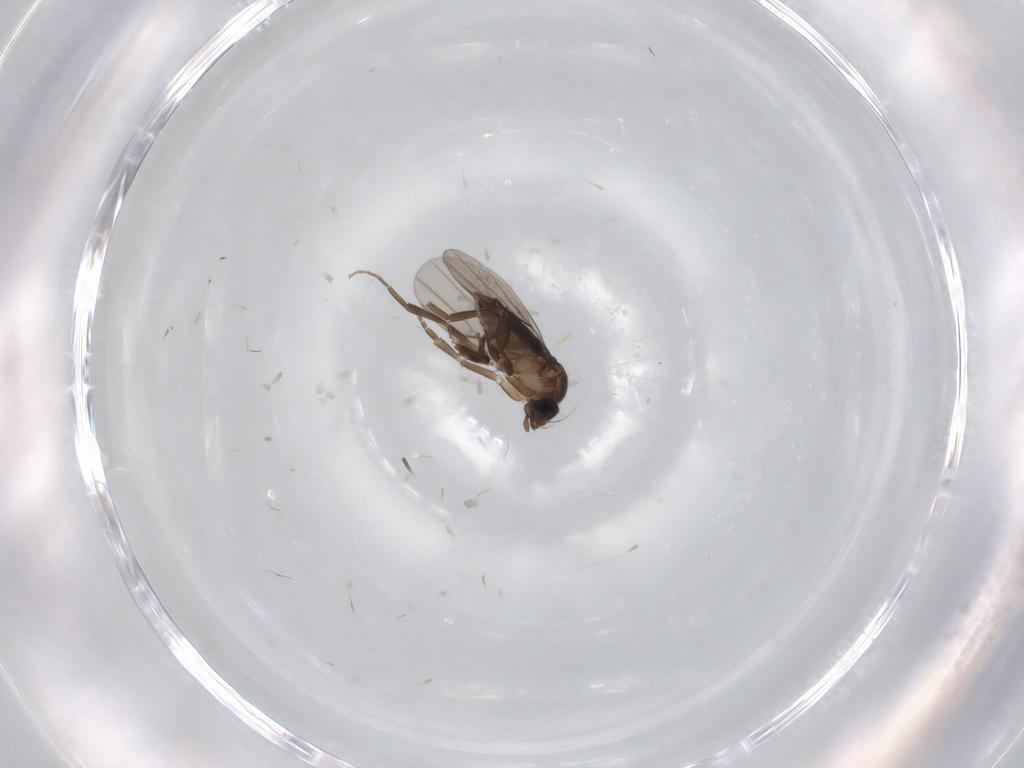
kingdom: Animalia
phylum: Arthropoda
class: Insecta
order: Diptera
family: Phoridae
